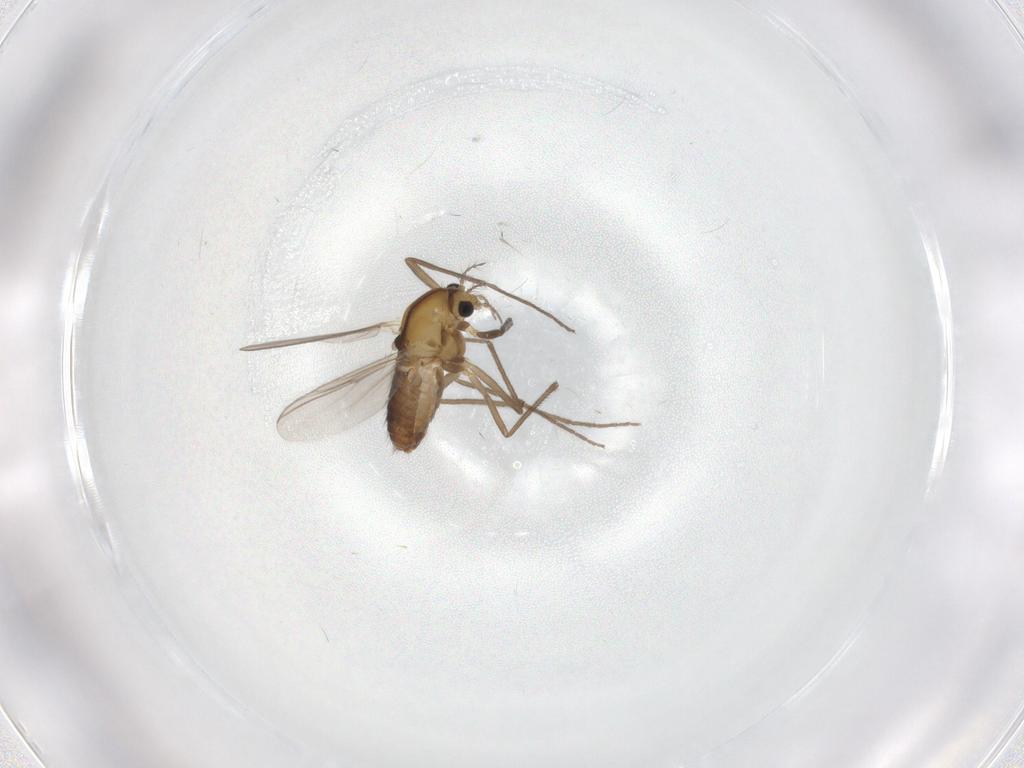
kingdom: Animalia
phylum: Arthropoda
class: Insecta
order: Diptera
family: Chironomidae
